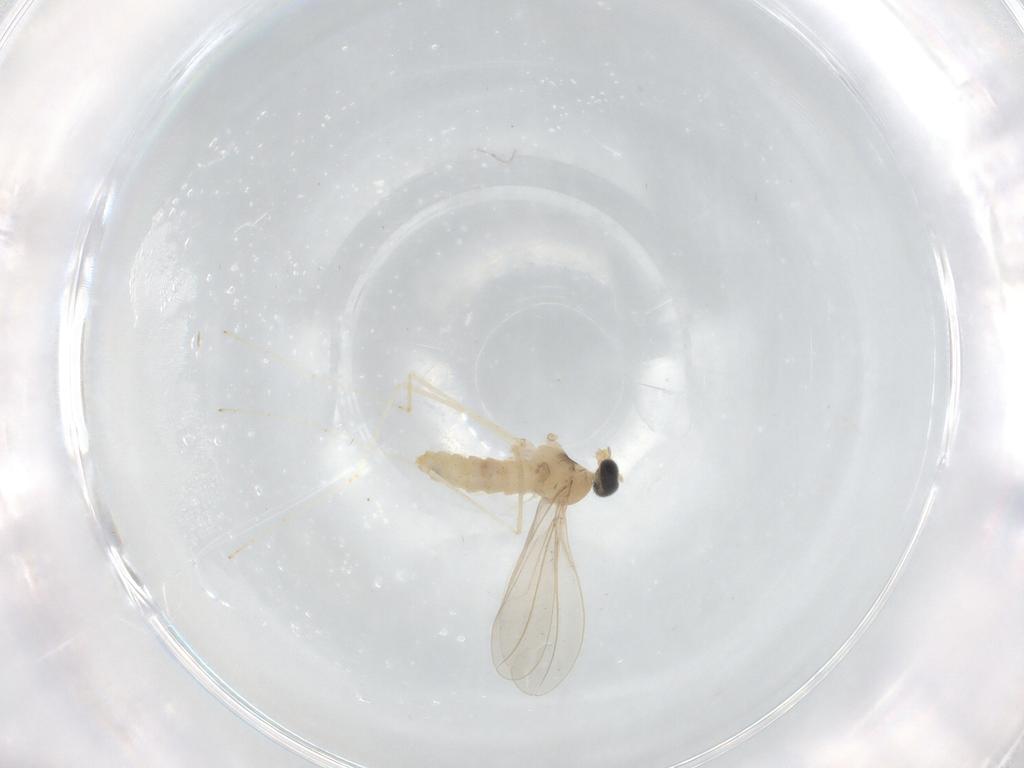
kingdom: Animalia
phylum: Arthropoda
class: Insecta
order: Diptera
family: Cecidomyiidae
